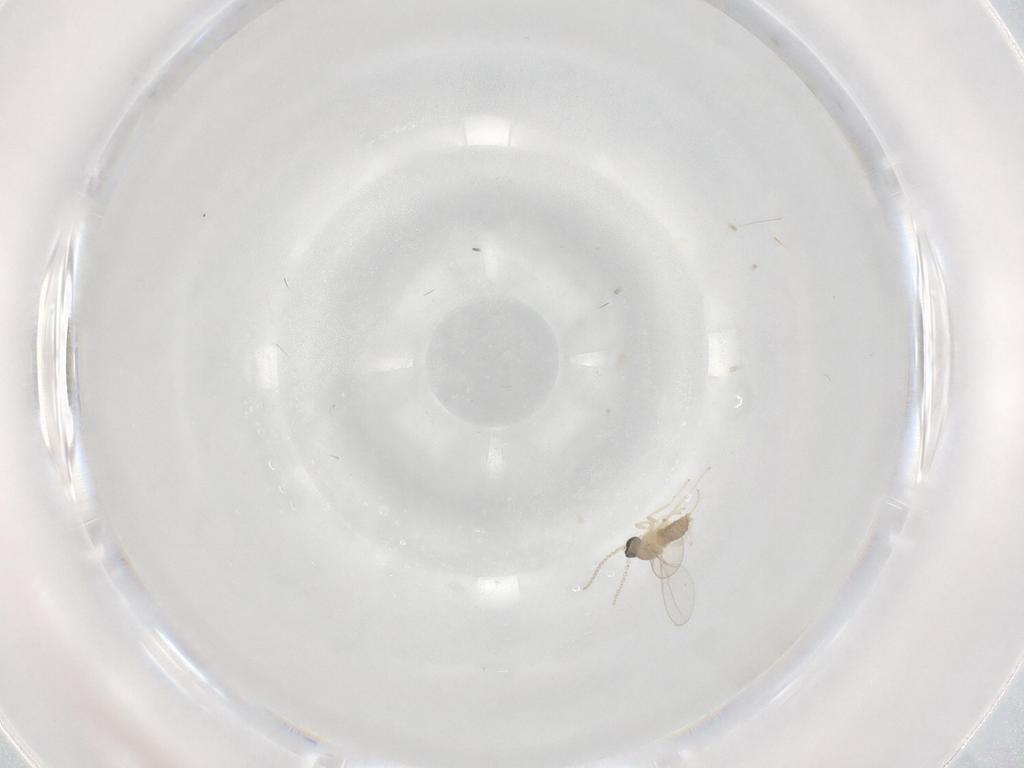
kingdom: Animalia
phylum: Arthropoda
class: Insecta
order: Diptera
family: Cecidomyiidae
